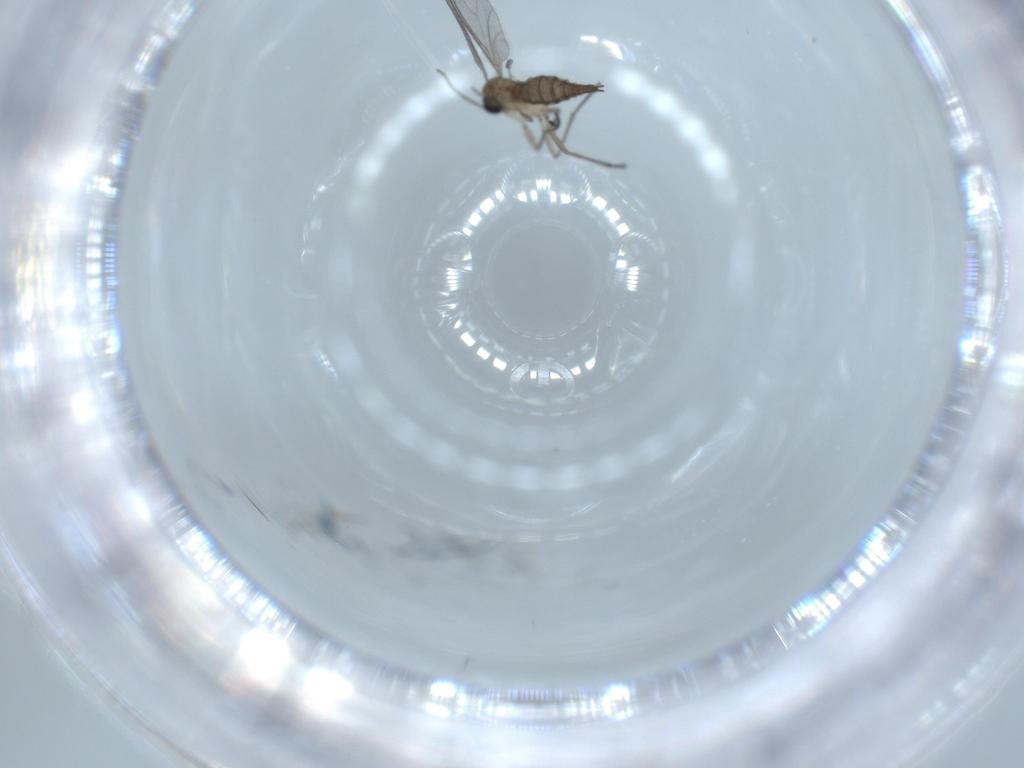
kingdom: Animalia
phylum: Arthropoda
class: Insecta
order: Diptera
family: Sciaridae
